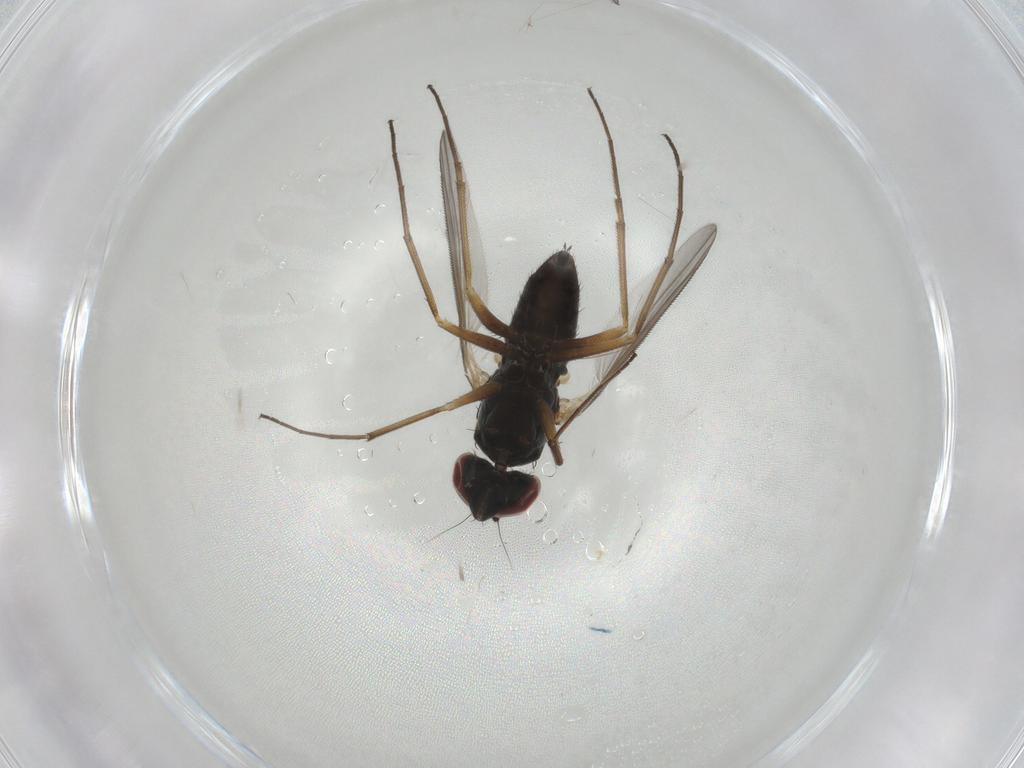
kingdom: Animalia
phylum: Arthropoda
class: Insecta
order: Diptera
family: Dolichopodidae
